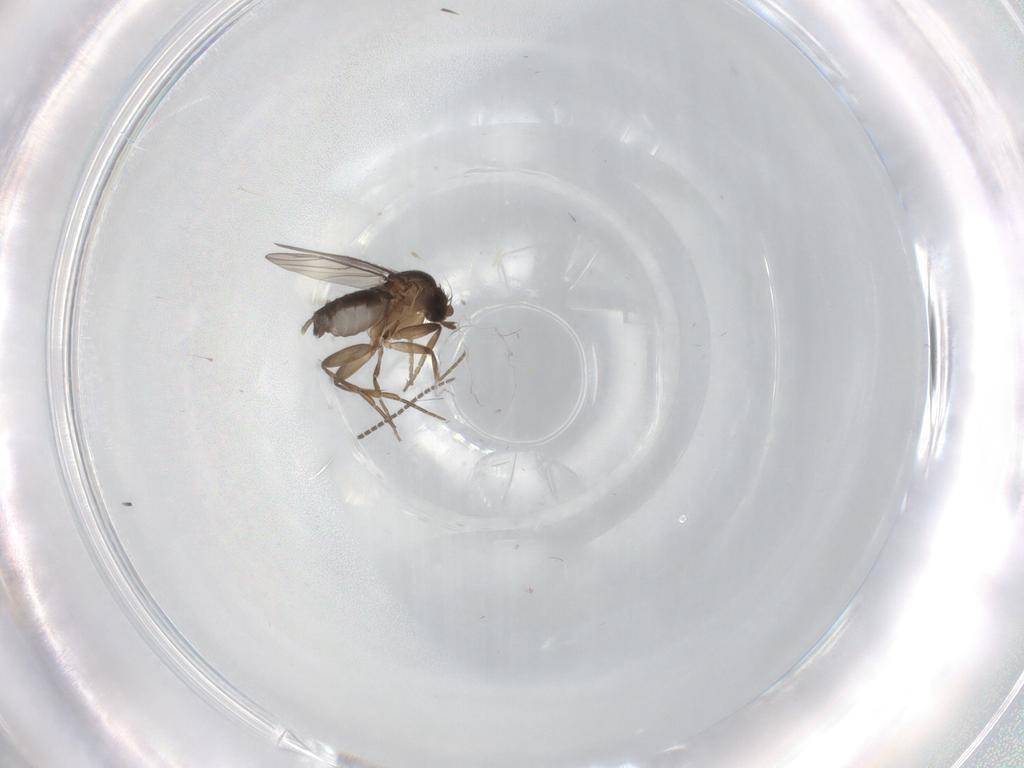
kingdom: Animalia
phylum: Arthropoda
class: Insecta
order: Diptera
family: Phoridae
